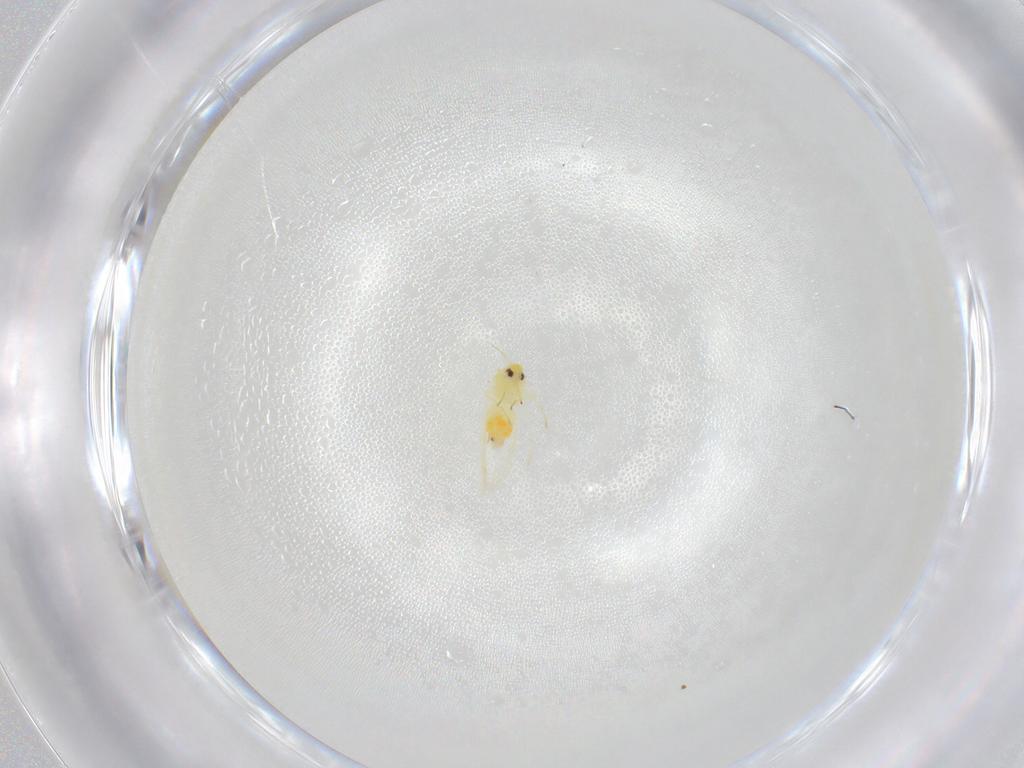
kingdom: Animalia
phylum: Arthropoda
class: Insecta
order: Hemiptera
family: Aleyrodidae
